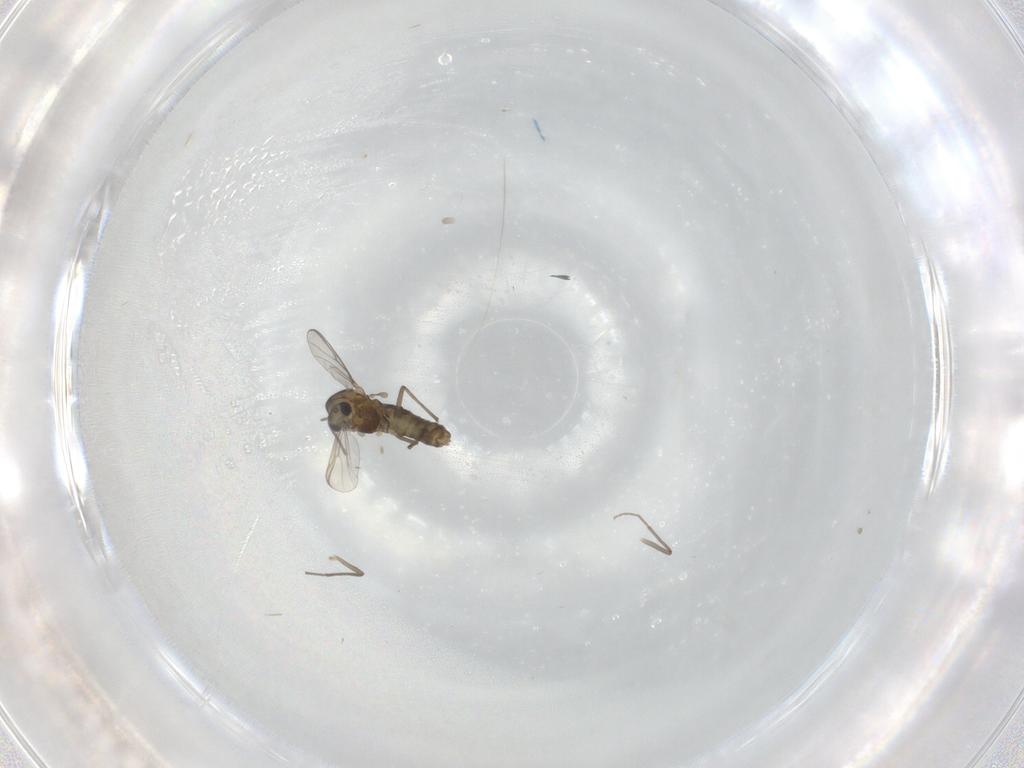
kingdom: Animalia
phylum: Arthropoda
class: Insecta
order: Diptera
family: Chironomidae
